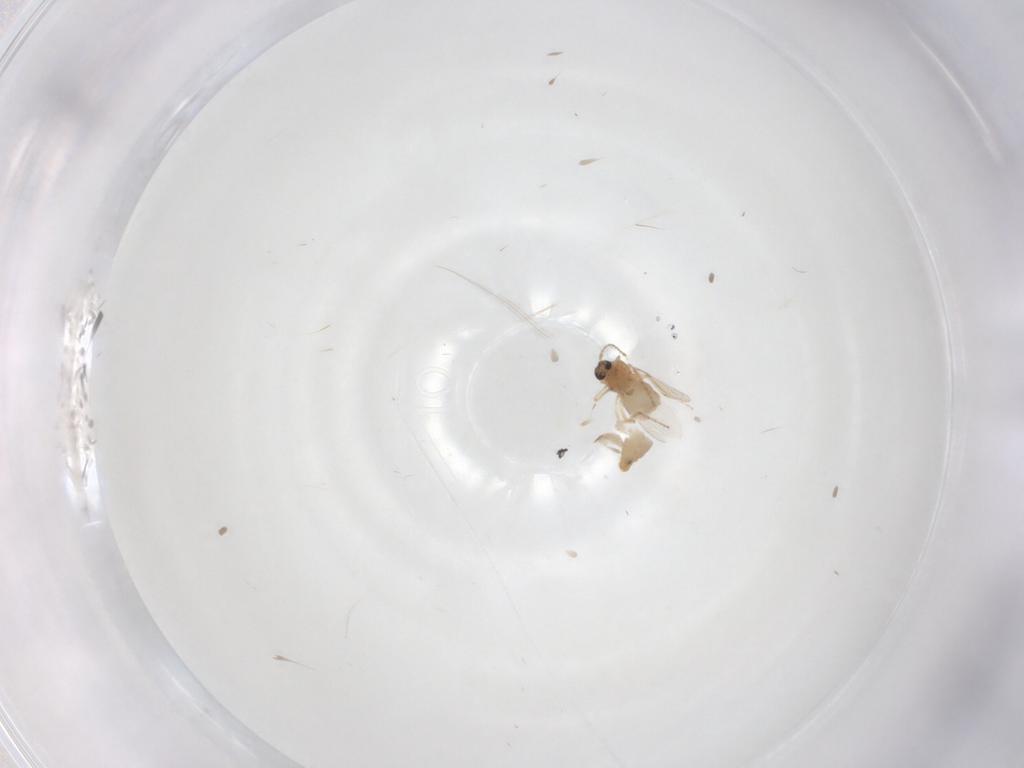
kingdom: Animalia
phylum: Arthropoda
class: Insecta
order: Diptera
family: Ceratopogonidae
